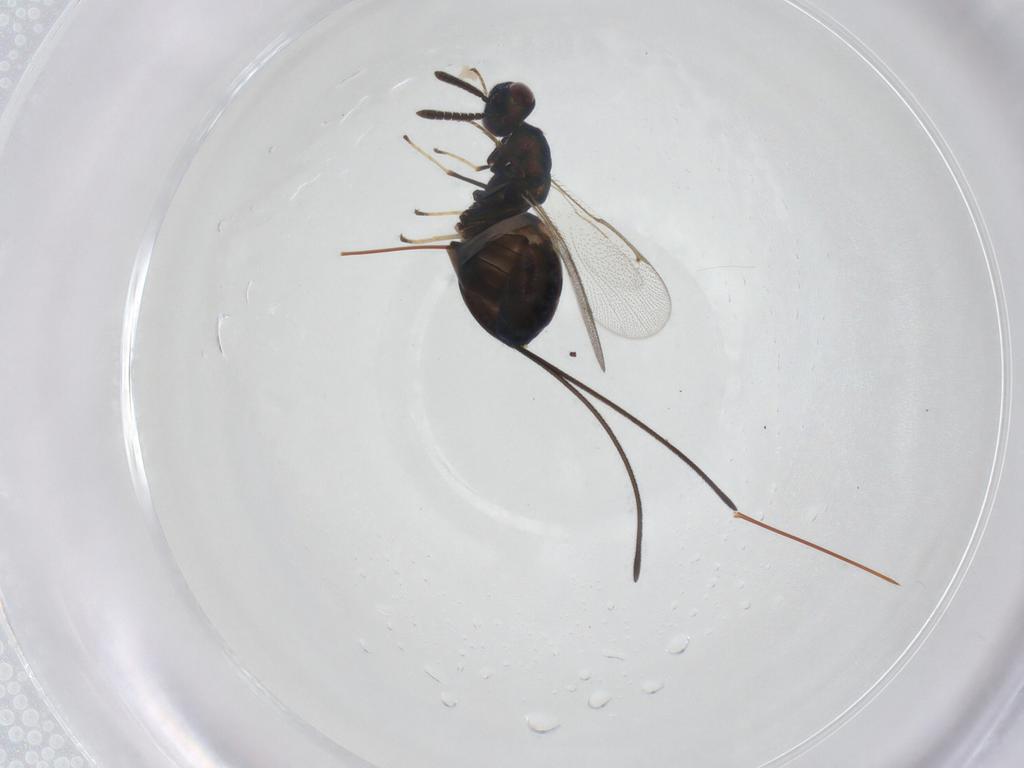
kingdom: Animalia
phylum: Arthropoda
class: Insecta
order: Hymenoptera
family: Torymidae
